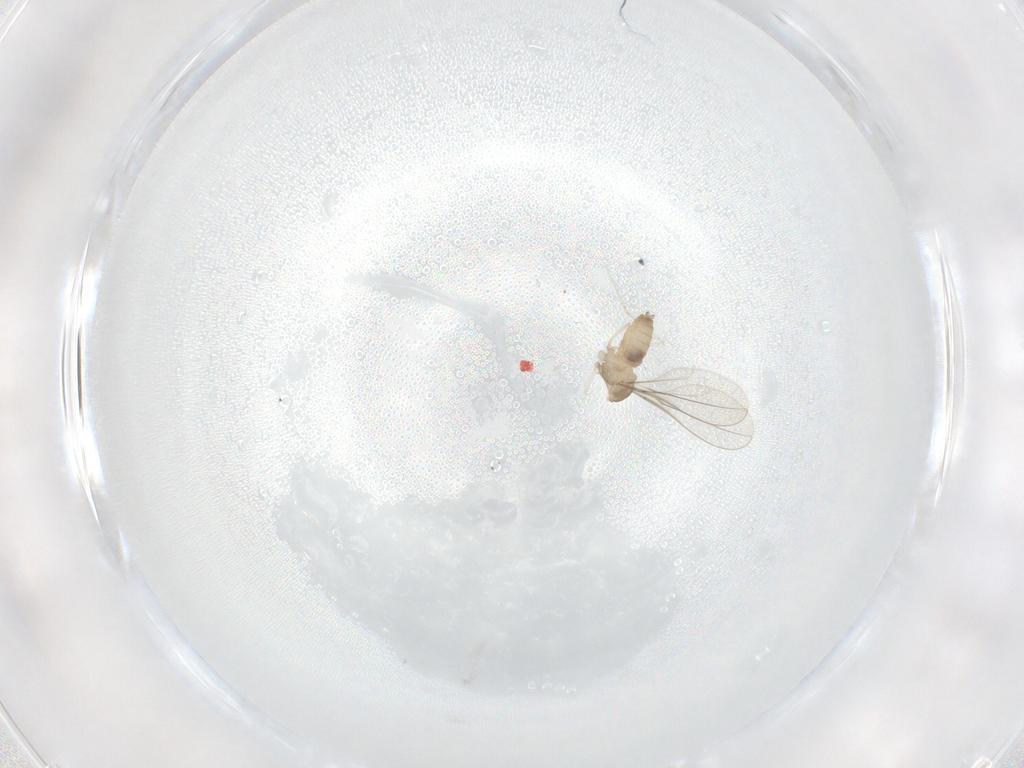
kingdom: Animalia
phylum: Arthropoda
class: Insecta
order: Diptera
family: Cecidomyiidae
